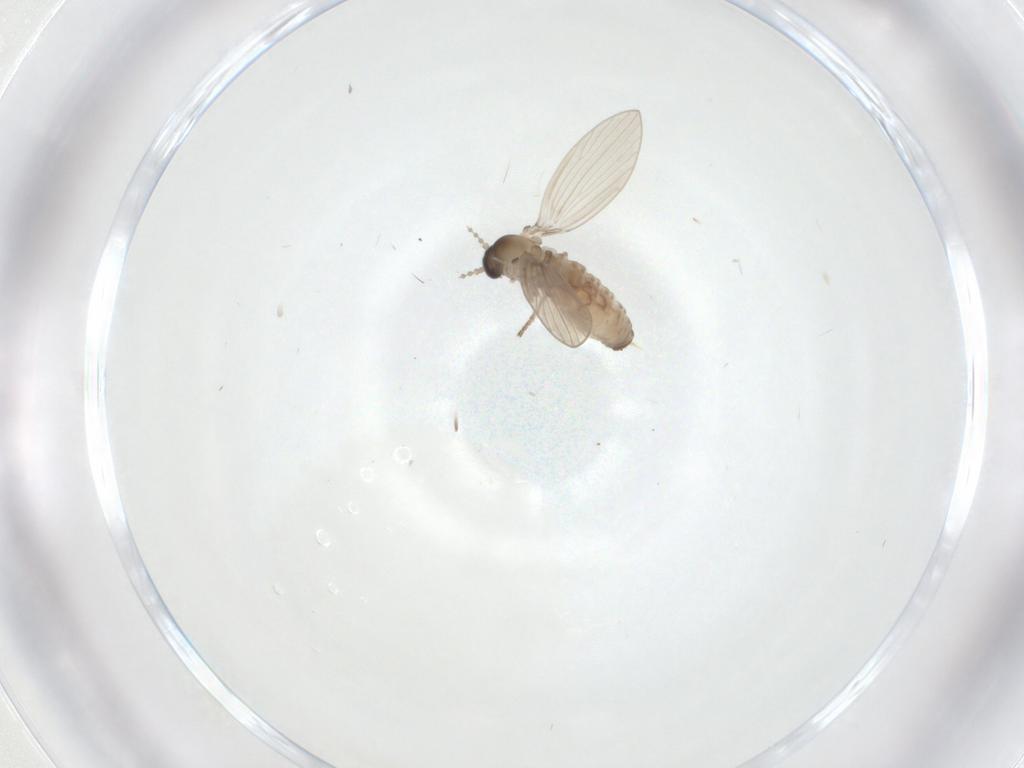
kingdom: Animalia
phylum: Arthropoda
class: Insecta
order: Diptera
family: Psychodidae
